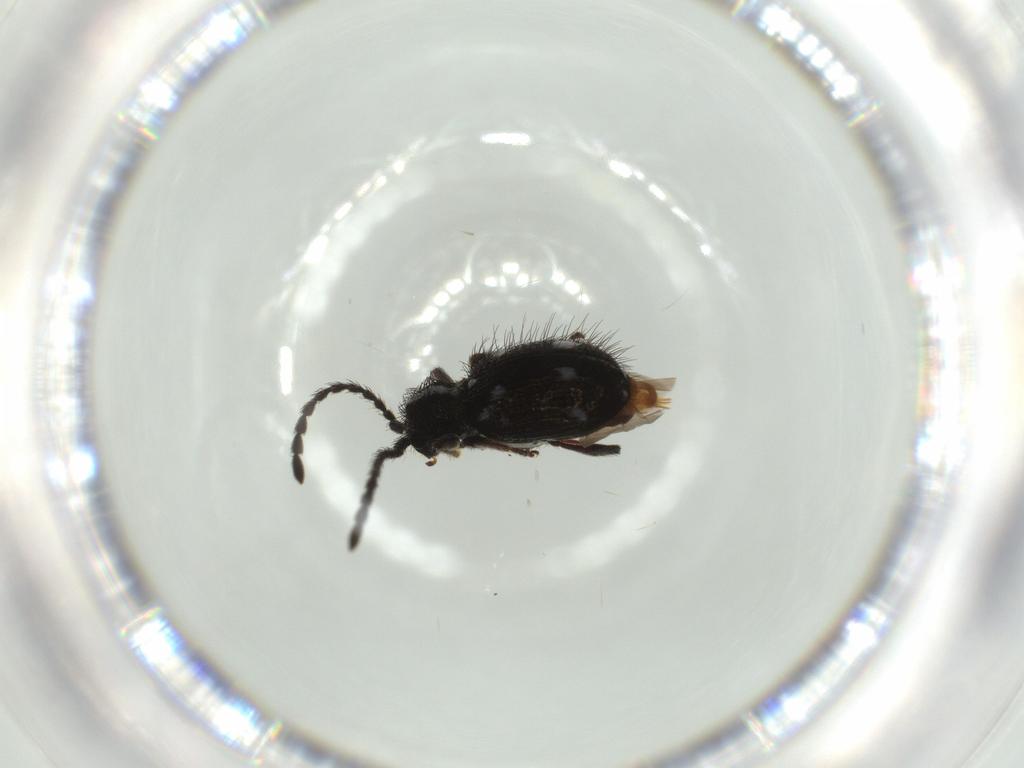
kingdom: Animalia
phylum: Arthropoda
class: Insecta
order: Coleoptera
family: Ptinidae
